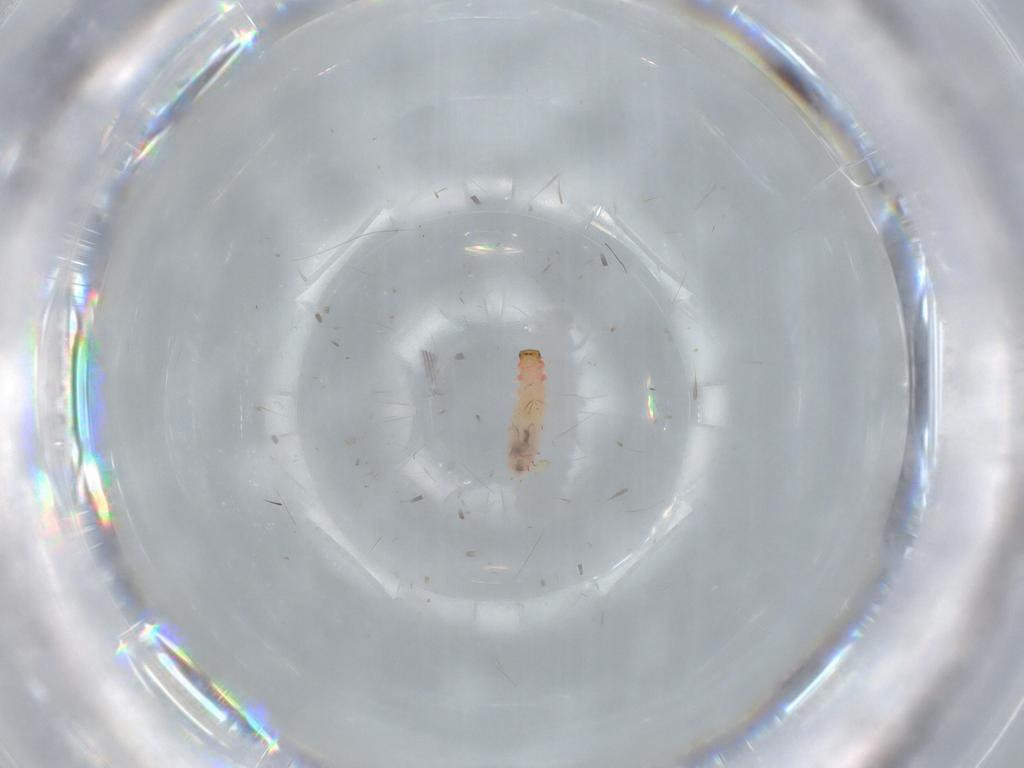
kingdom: Animalia
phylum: Arthropoda
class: Insecta
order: Coleoptera
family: Melyridae
